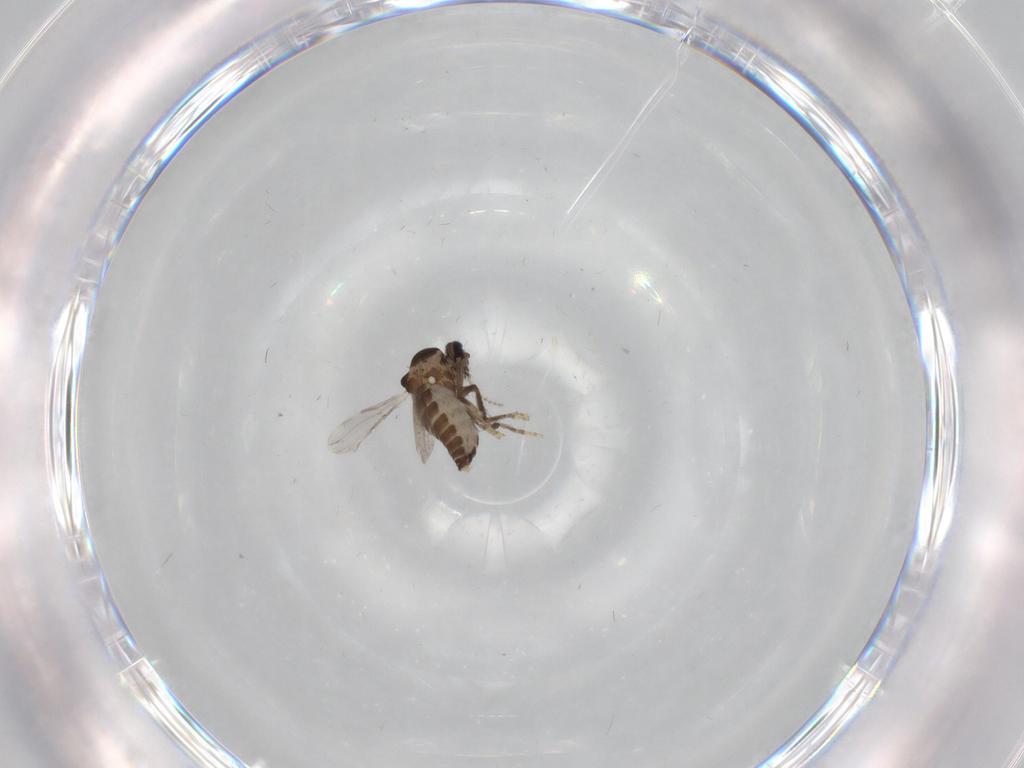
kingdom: Animalia
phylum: Arthropoda
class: Insecta
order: Diptera
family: Ceratopogonidae
